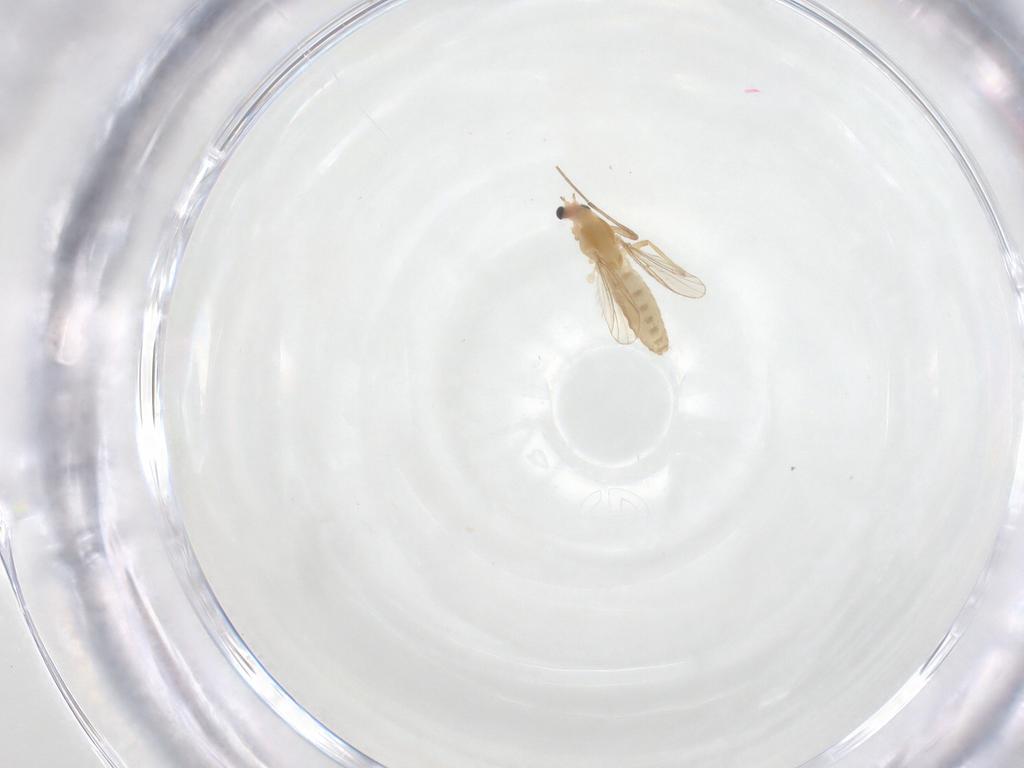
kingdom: Animalia
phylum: Arthropoda
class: Insecta
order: Diptera
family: Chironomidae
